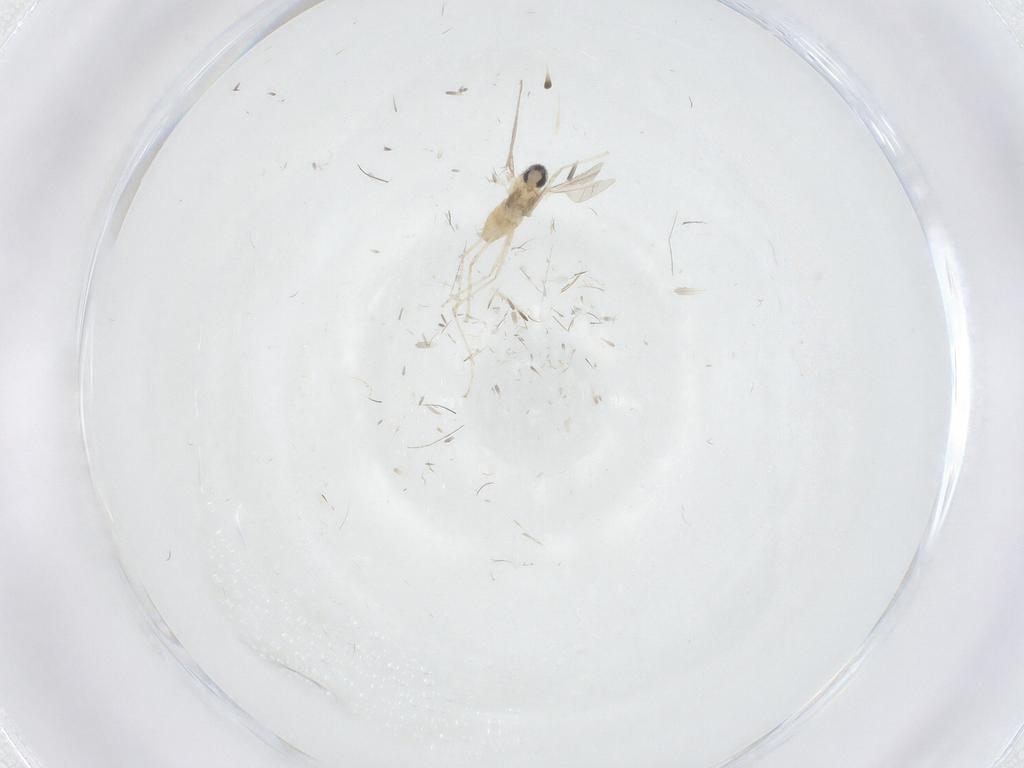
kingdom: Animalia
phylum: Arthropoda
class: Insecta
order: Diptera
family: Ceratopogonidae
